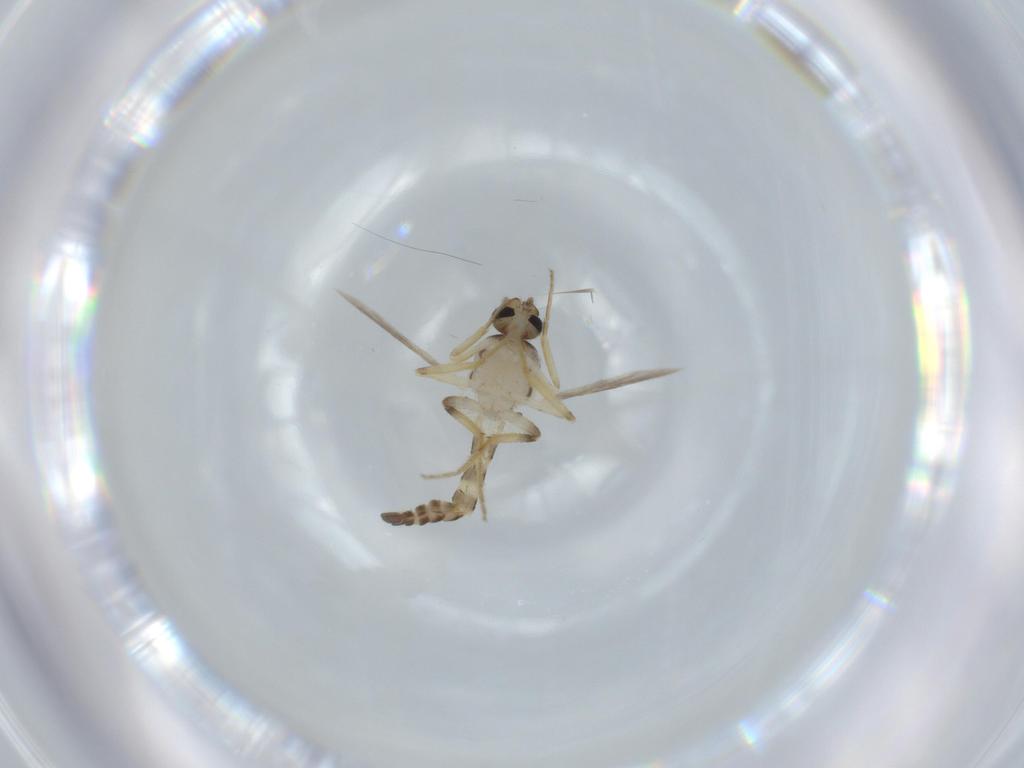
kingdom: Animalia
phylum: Arthropoda
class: Insecta
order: Diptera
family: Ceratopogonidae
